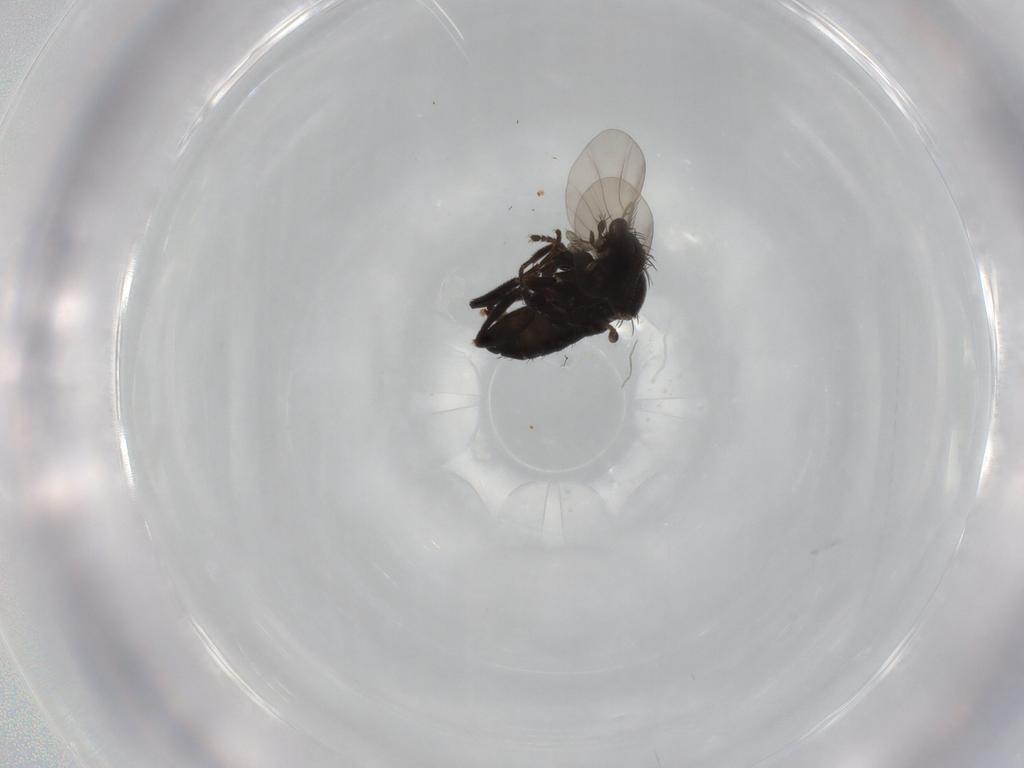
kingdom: Animalia
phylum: Arthropoda
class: Insecta
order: Diptera
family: Phoridae
